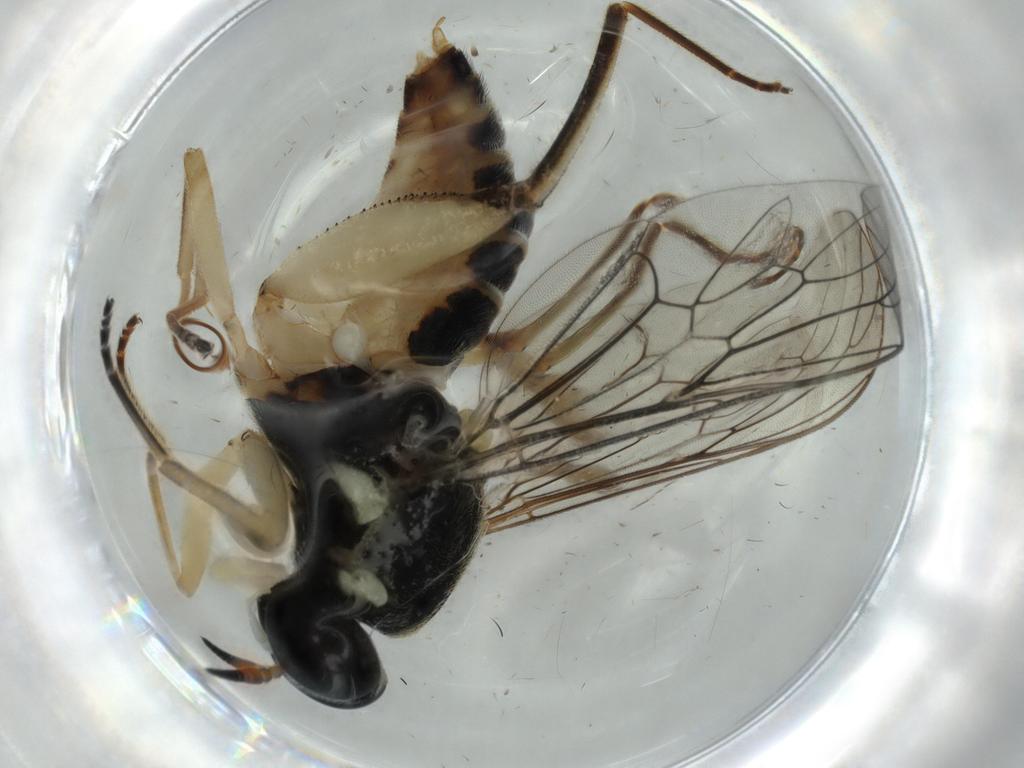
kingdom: Animalia
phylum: Arthropoda
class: Insecta
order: Diptera
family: Cecidomyiidae
